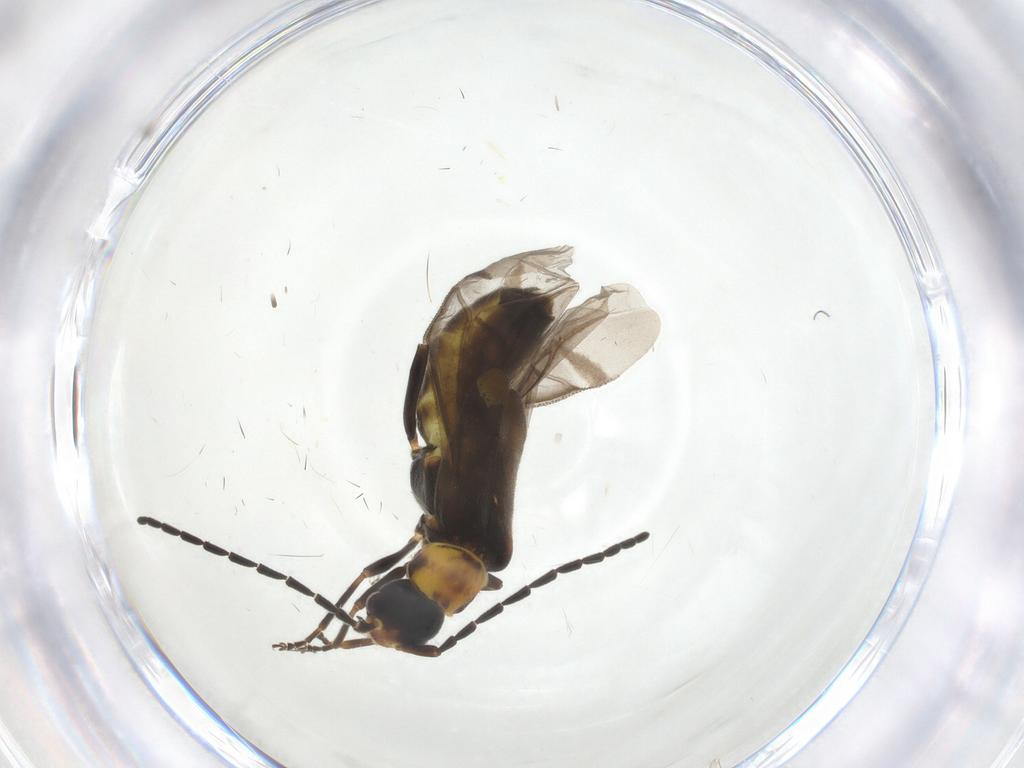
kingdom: Animalia
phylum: Arthropoda
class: Insecta
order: Coleoptera
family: Cantharidae
